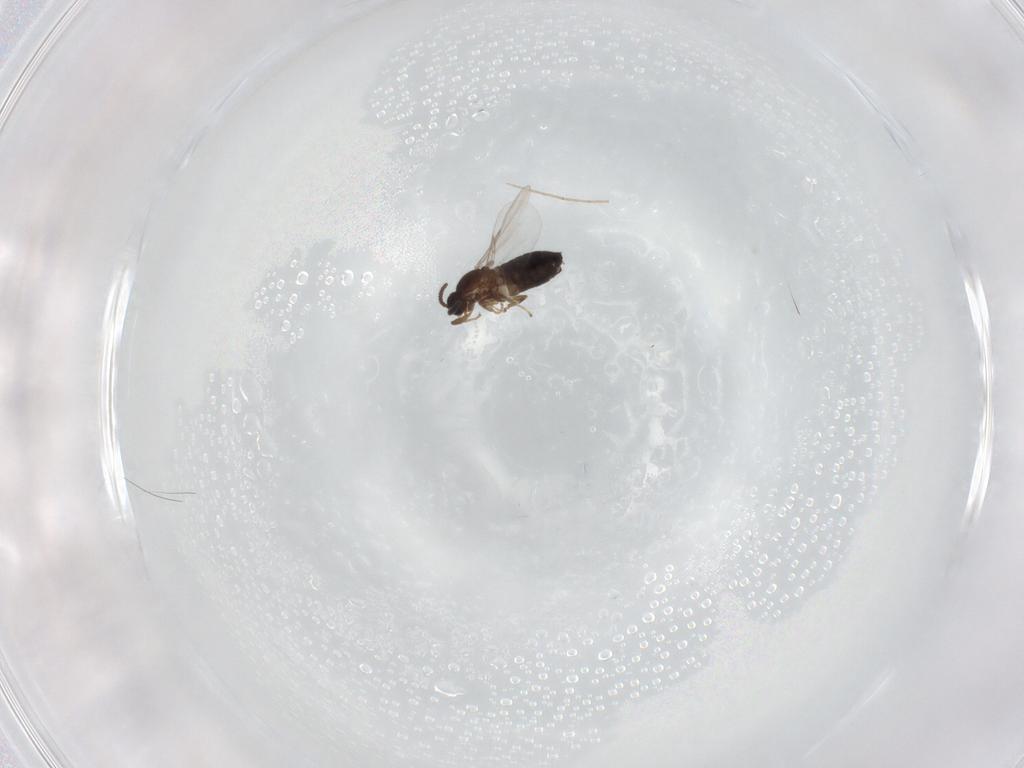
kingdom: Animalia
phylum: Arthropoda
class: Insecta
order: Diptera
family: Scatopsidae
